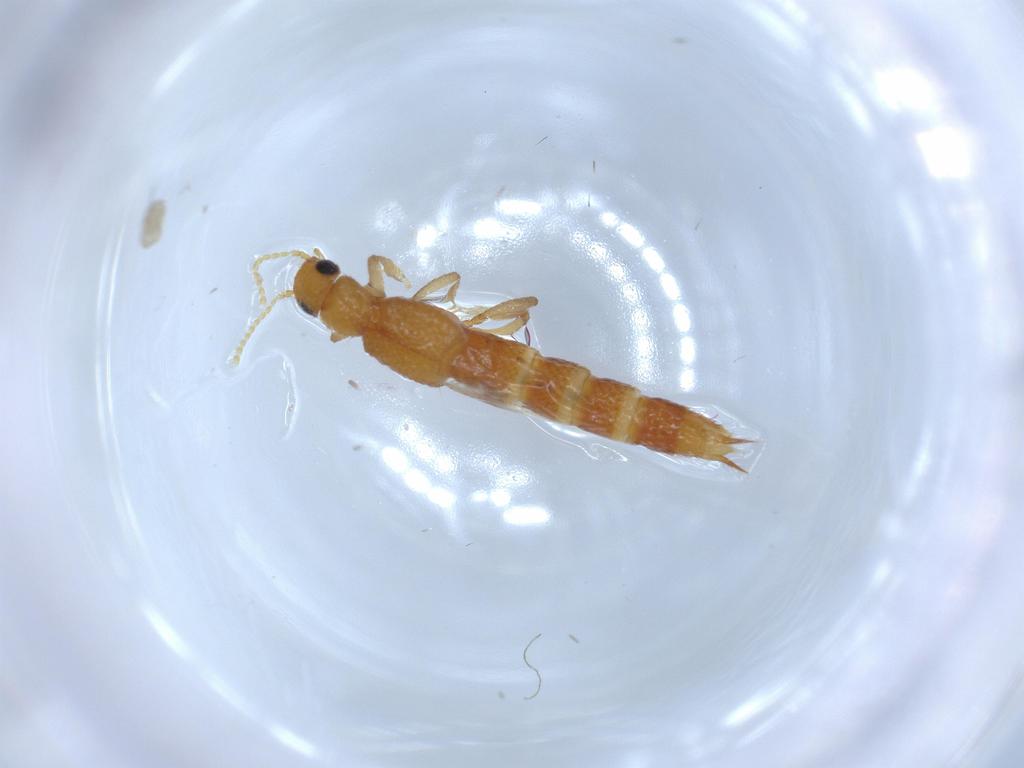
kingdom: Animalia
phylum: Arthropoda
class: Insecta
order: Coleoptera
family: Staphylinidae
